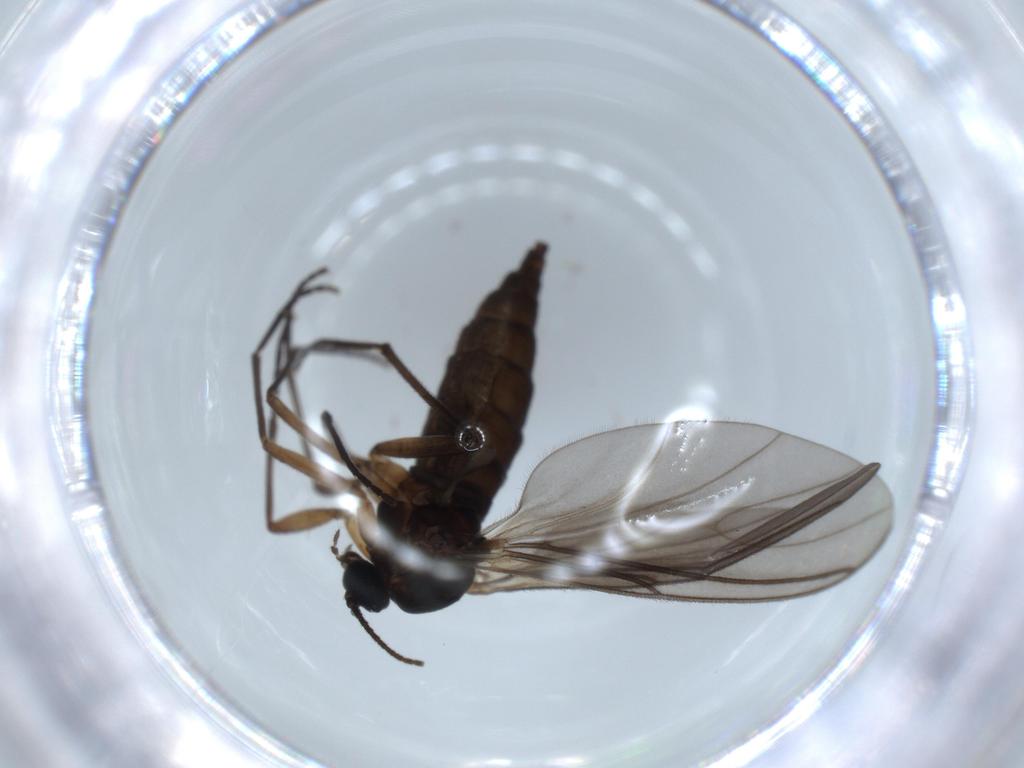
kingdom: Animalia
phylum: Arthropoda
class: Insecta
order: Diptera
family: Sciaridae
